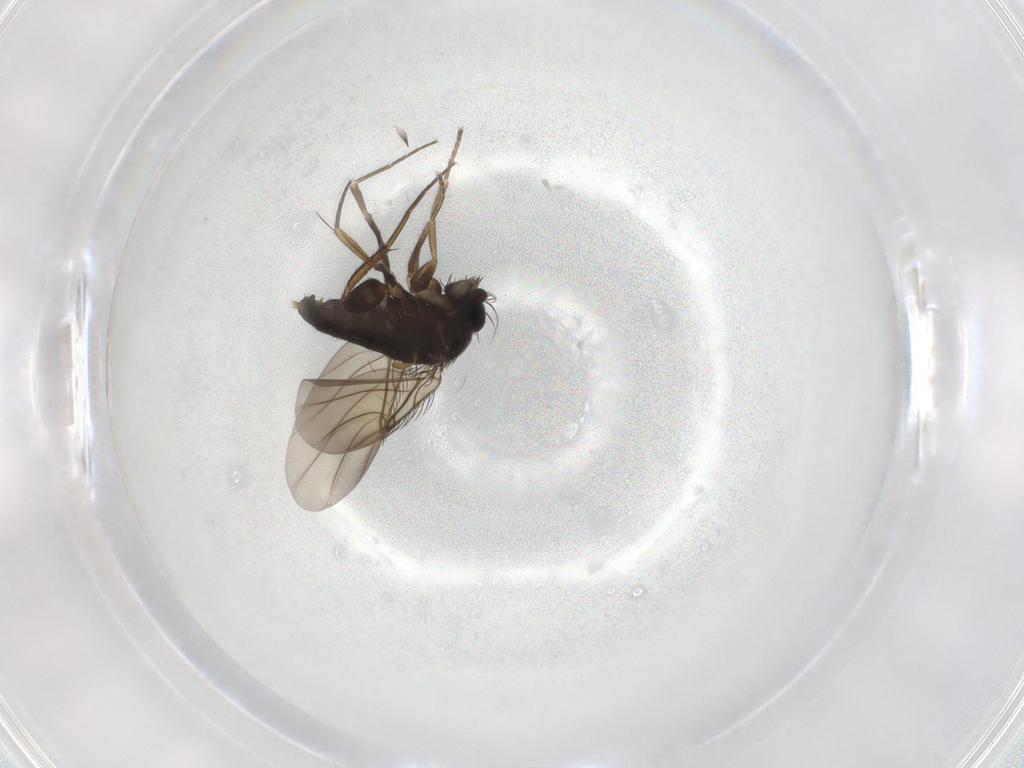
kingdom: Animalia
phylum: Arthropoda
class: Insecta
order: Diptera
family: Phoridae
